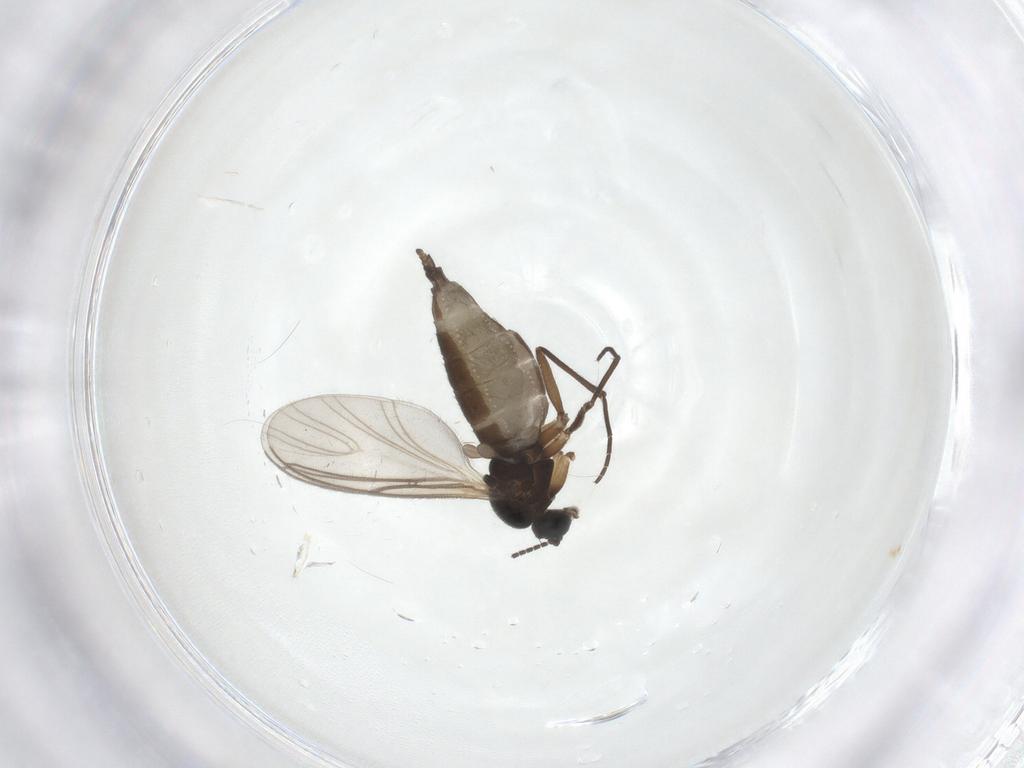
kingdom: Animalia
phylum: Arthropoda
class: Insecta
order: Diptera
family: Sciaridae
